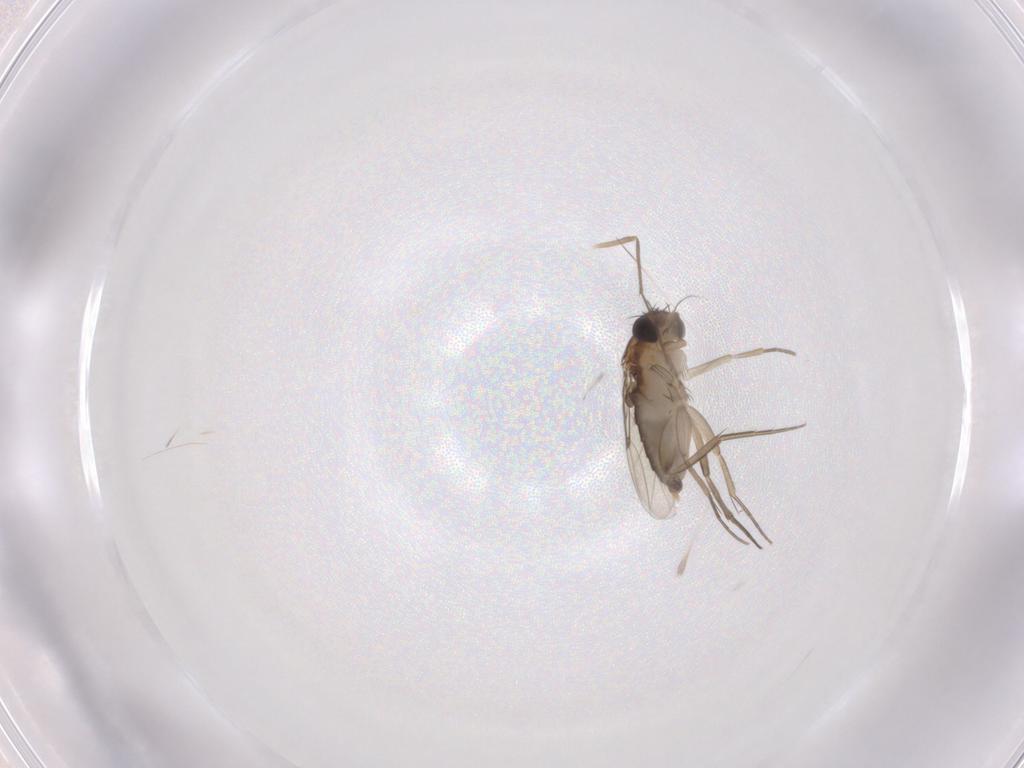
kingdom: Animalia
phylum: Arthropoda
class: Insecta
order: Diptera
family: Phoridae
